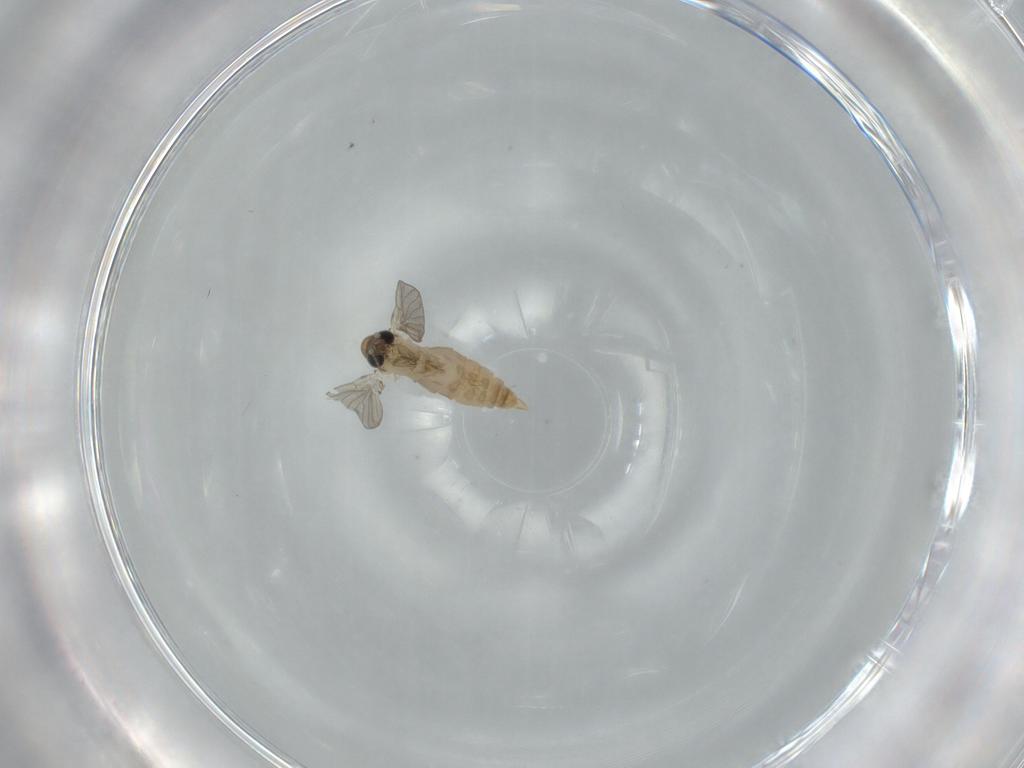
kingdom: Animalia
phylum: Arthropoda
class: Insecta
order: Diptera
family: Psychodidae
